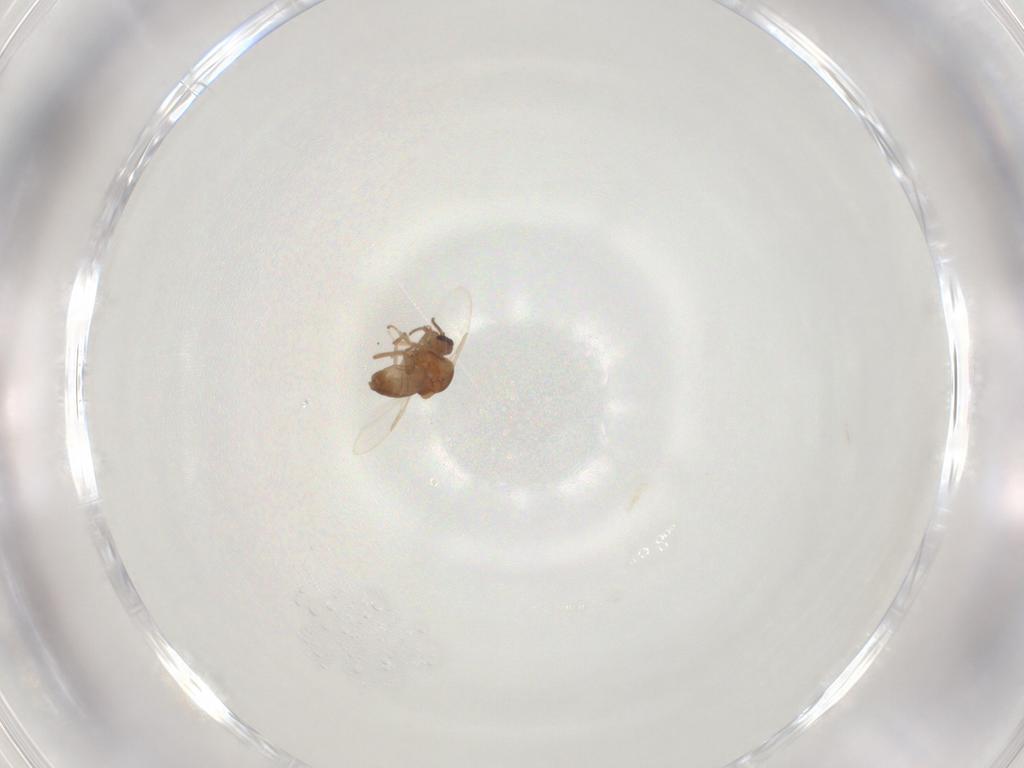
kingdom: Animalia
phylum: Arthropoda
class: Insecta
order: Diptera
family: Ceratopogonidae
